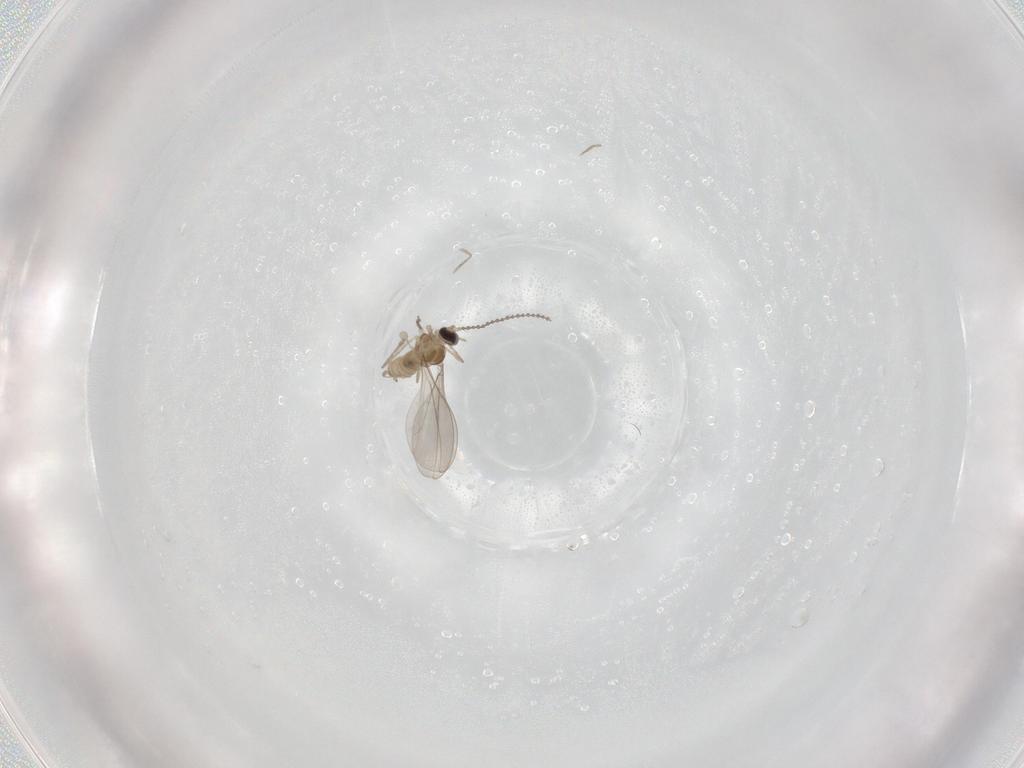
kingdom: Animalia
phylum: Arthropoda
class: Insecta
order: Diptera
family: Cecidomyiidae
